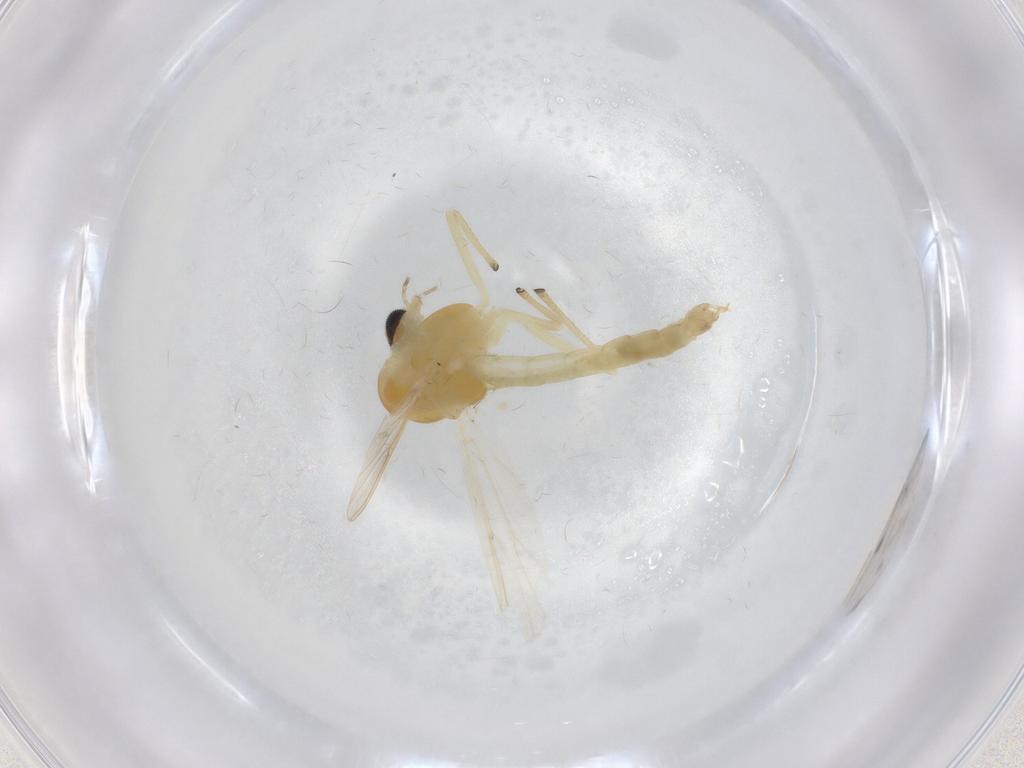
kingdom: Animalia
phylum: Arthropoda
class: Insecta
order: Diptera
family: Chironomidae
